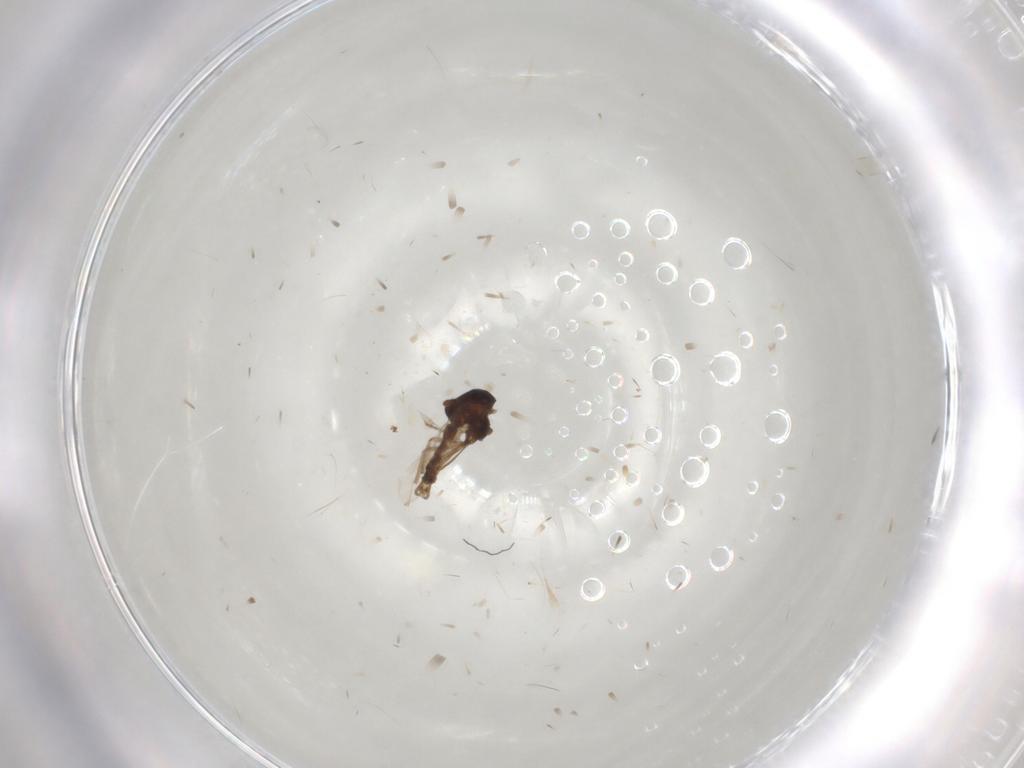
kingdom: Animalia
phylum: Arthropoda
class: Insecta
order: Diptera
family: Ceratopogonidae
